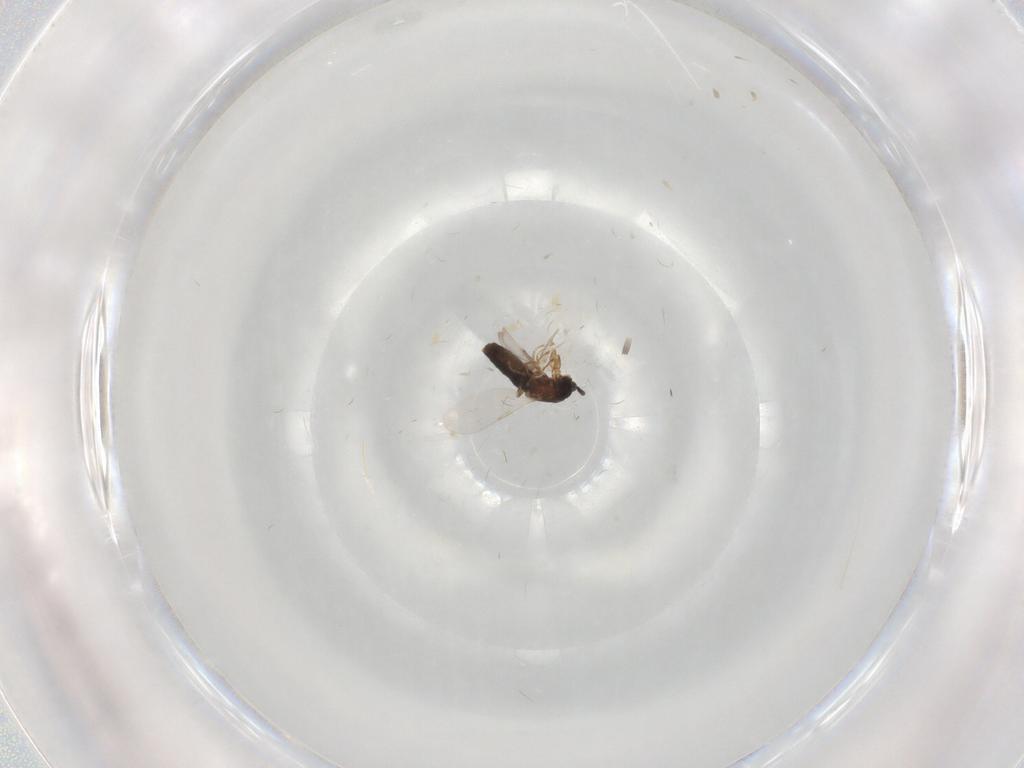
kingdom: Animalia
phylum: Arthropoda
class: Insecta
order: Diptera
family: Scatopsidae
